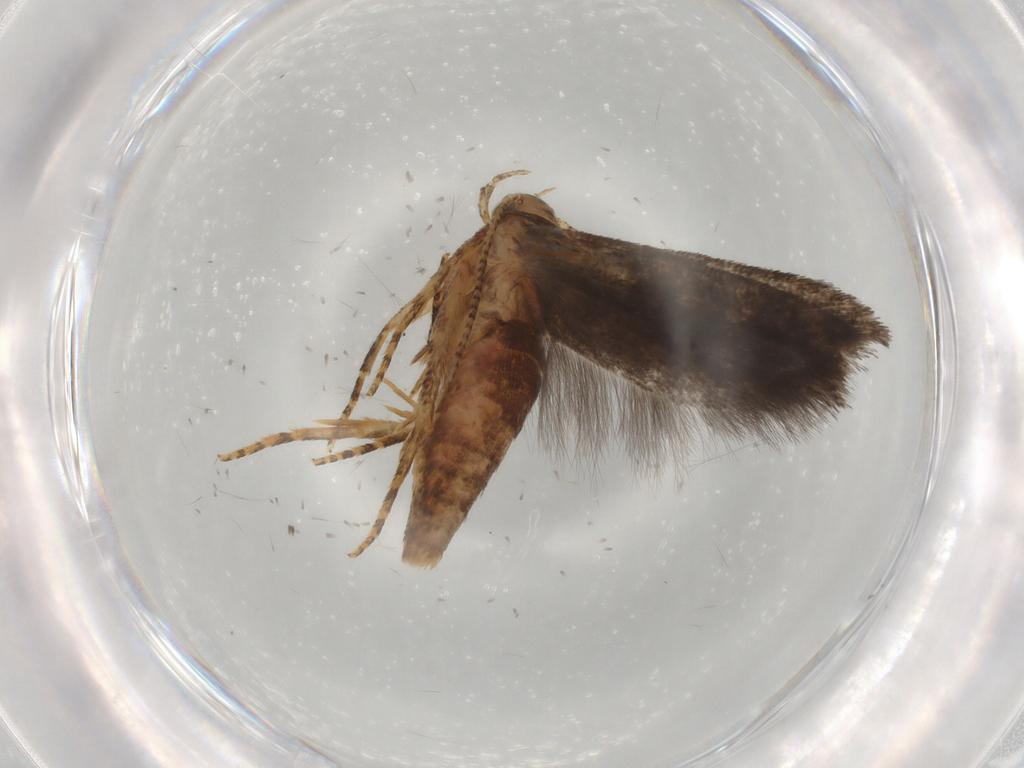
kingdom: Animalia
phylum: Arthropoda
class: Insecta
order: Lepidoptera
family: Gelechiidae
